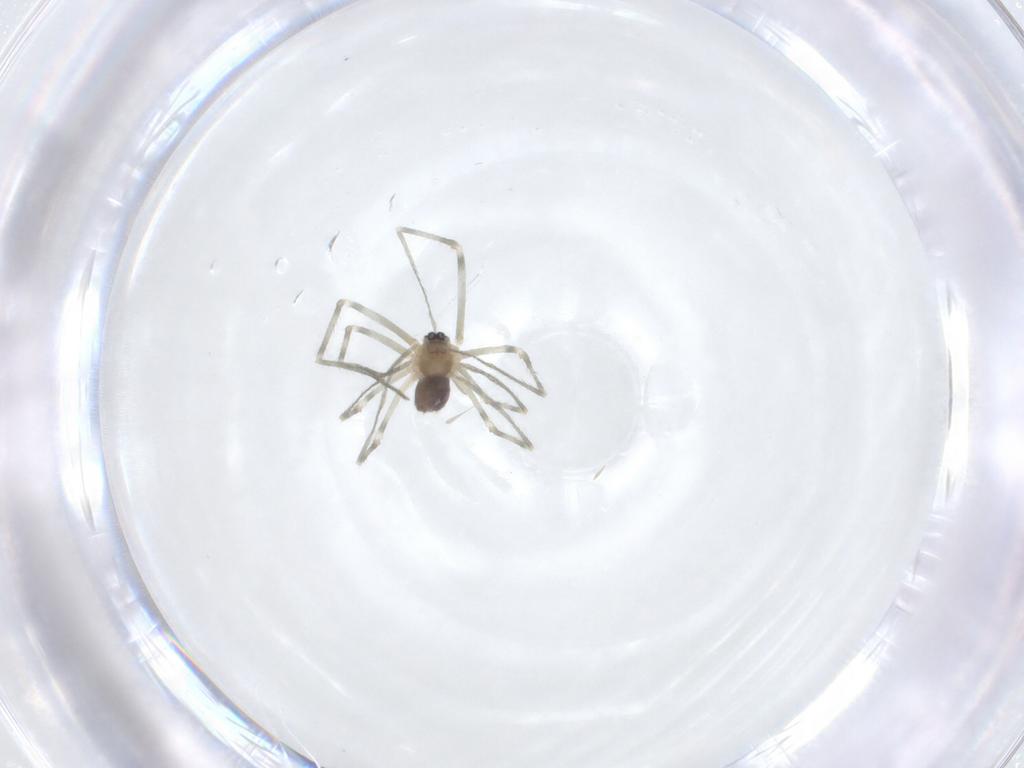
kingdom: Animalia
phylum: Arthropoda
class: Arachnida
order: Araneae
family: Pholcidae
